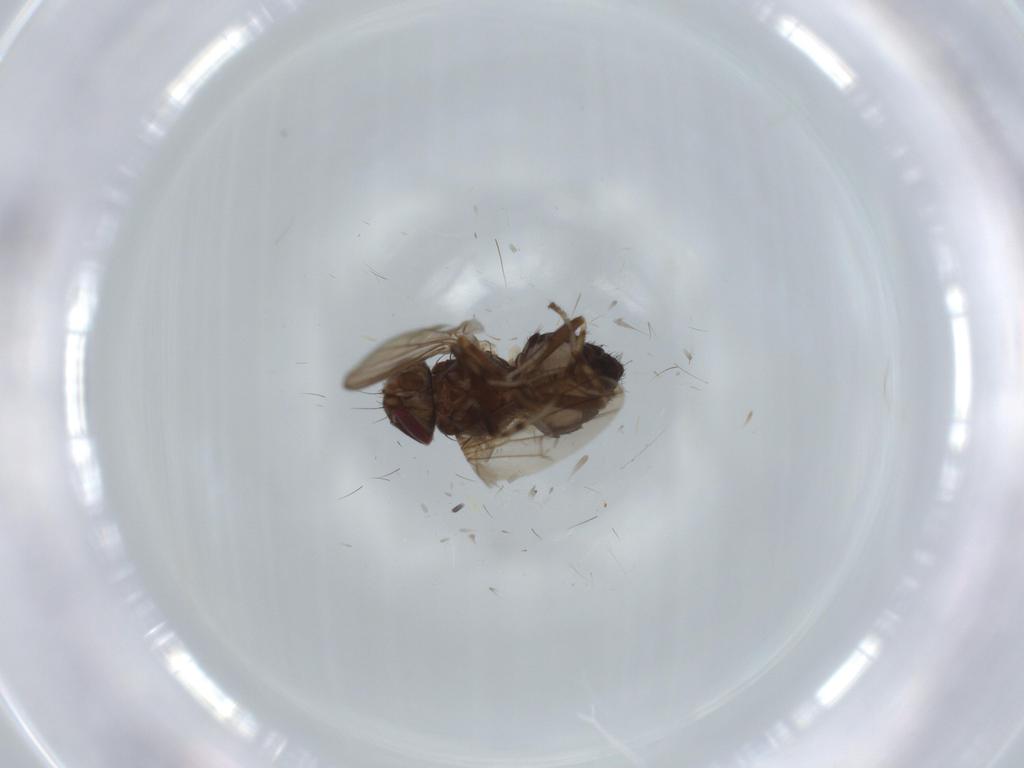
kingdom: Animalia
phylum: Arthropoda
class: Insecta
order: Diptera
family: Heleomyzidae
